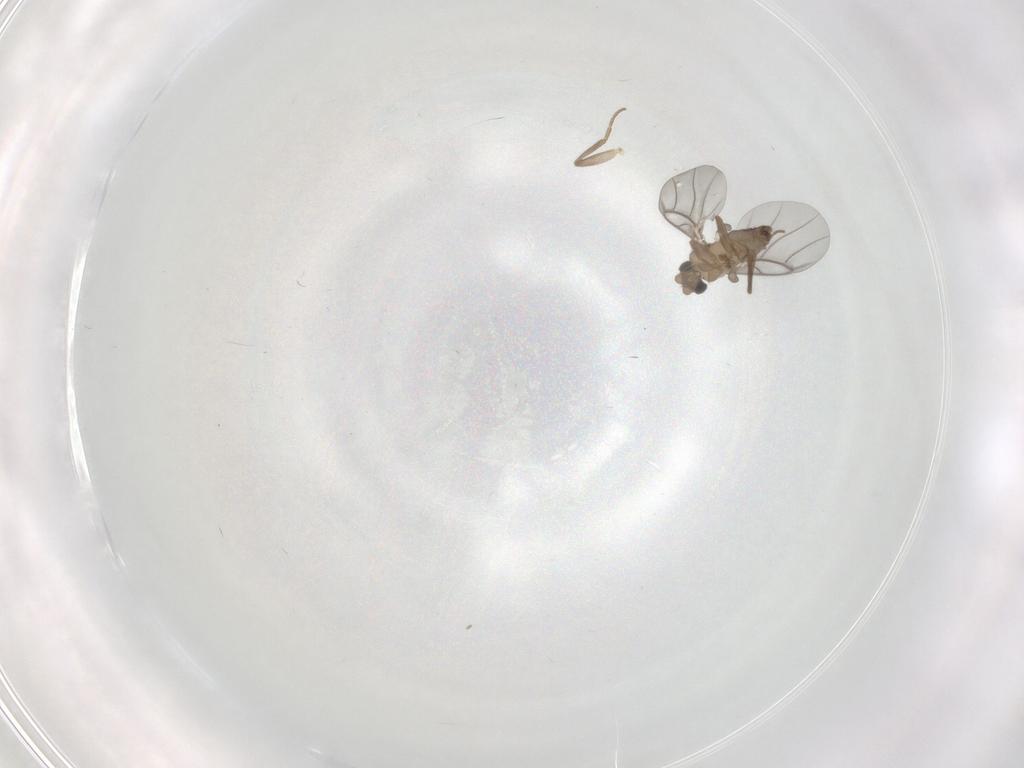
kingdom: Animalia
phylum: Arthropoda
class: Insecta
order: Diptera
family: Chironomidae
